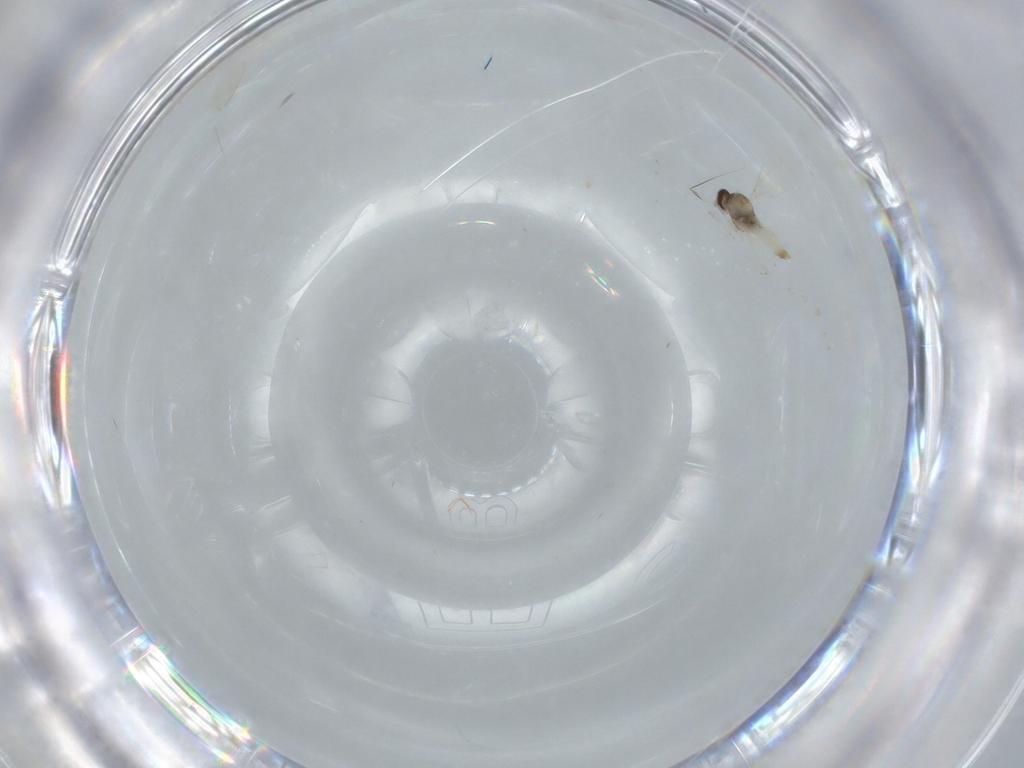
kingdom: Animalia
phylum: Arthropoda
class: Insecta
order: Diptera
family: Cecidomyiidae
